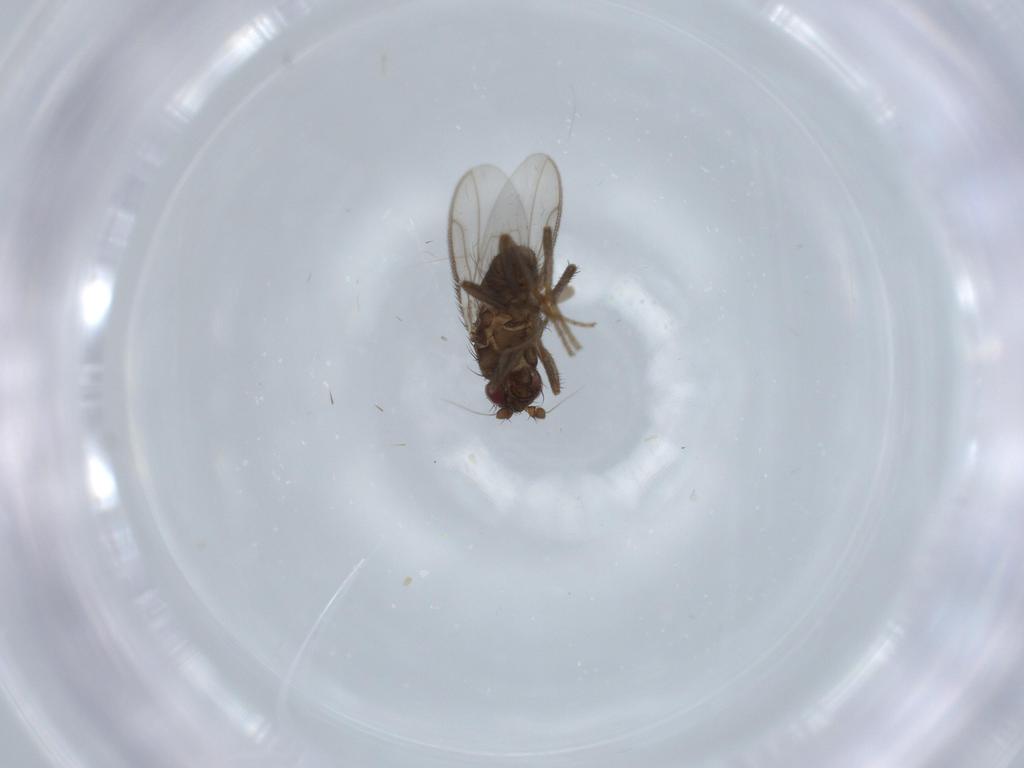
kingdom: Animalia
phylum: Arthropoda
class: Insecta
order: Diptera
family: Sphaeroceridae
